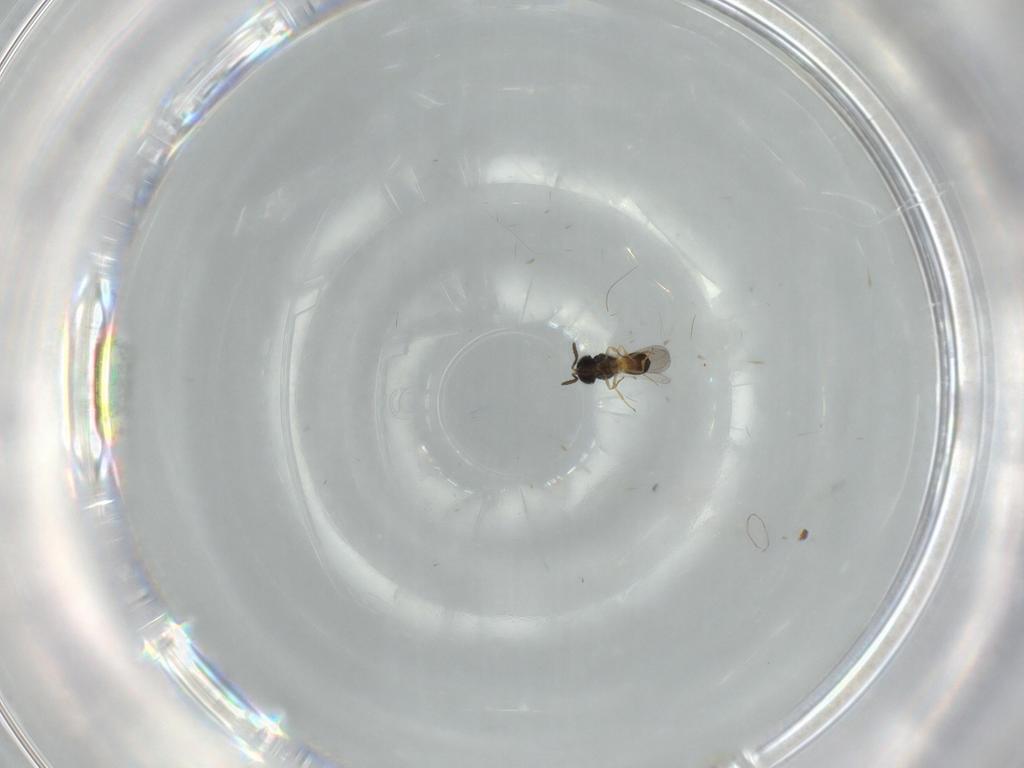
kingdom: Animalia
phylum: Arthropoda
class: Insecta
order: Hymenoptera
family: Scelionidae
